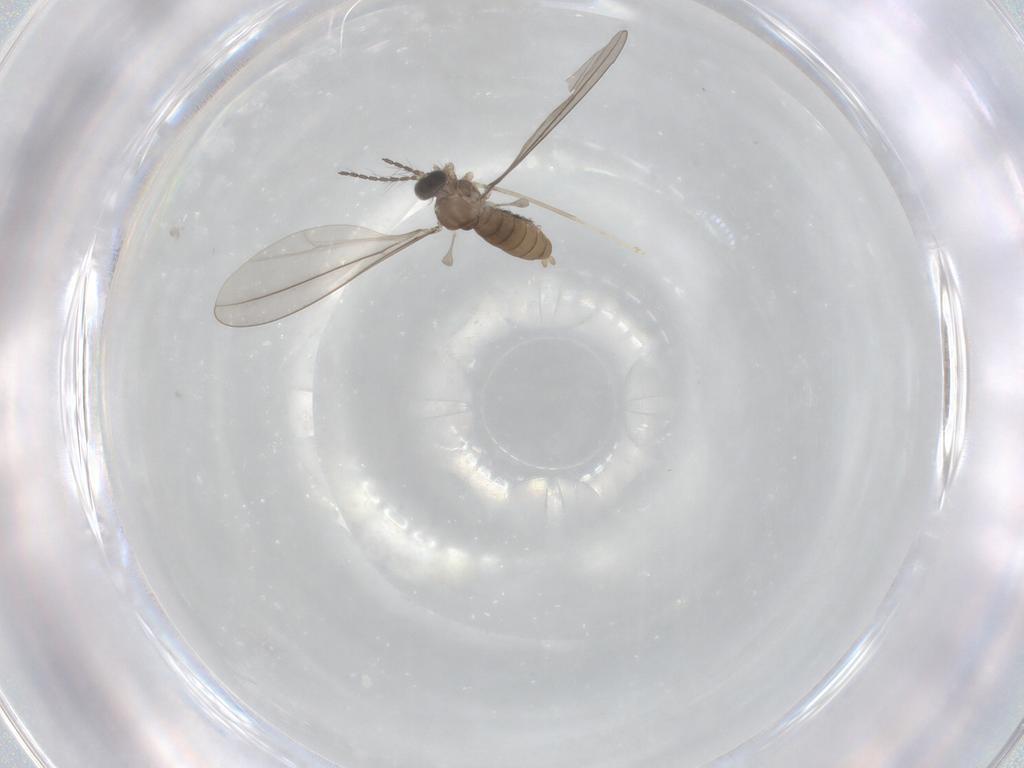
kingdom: Animalia
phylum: Arthropoda
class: Insecta
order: Diptera
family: Cecidomyiidae
